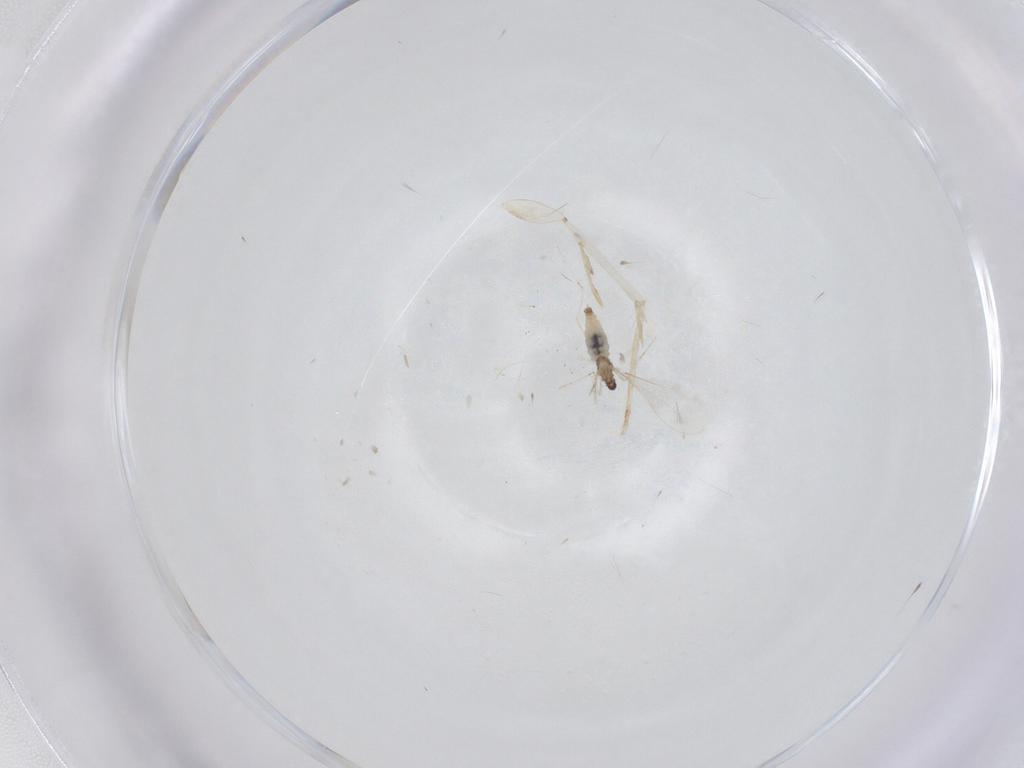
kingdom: Animalia
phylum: Arthropoda
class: Insecta
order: Diptera
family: Cecidomyiidae
